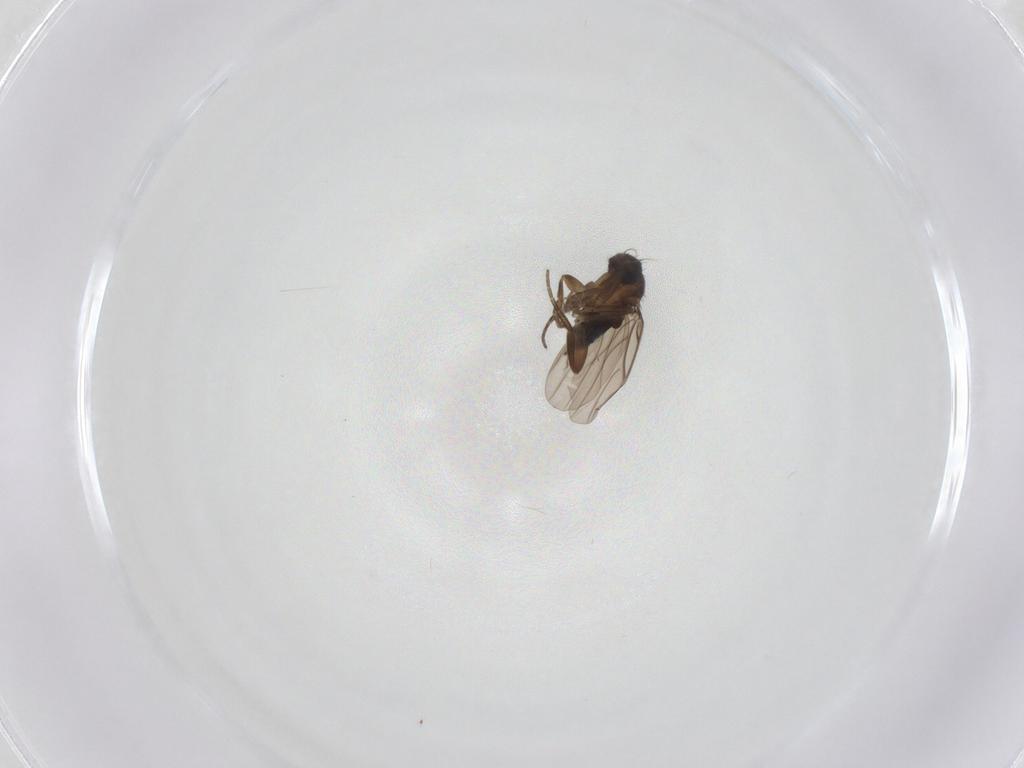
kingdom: Animalia
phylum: Arthropoda
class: Insecta
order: Diptera
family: Phoridae
